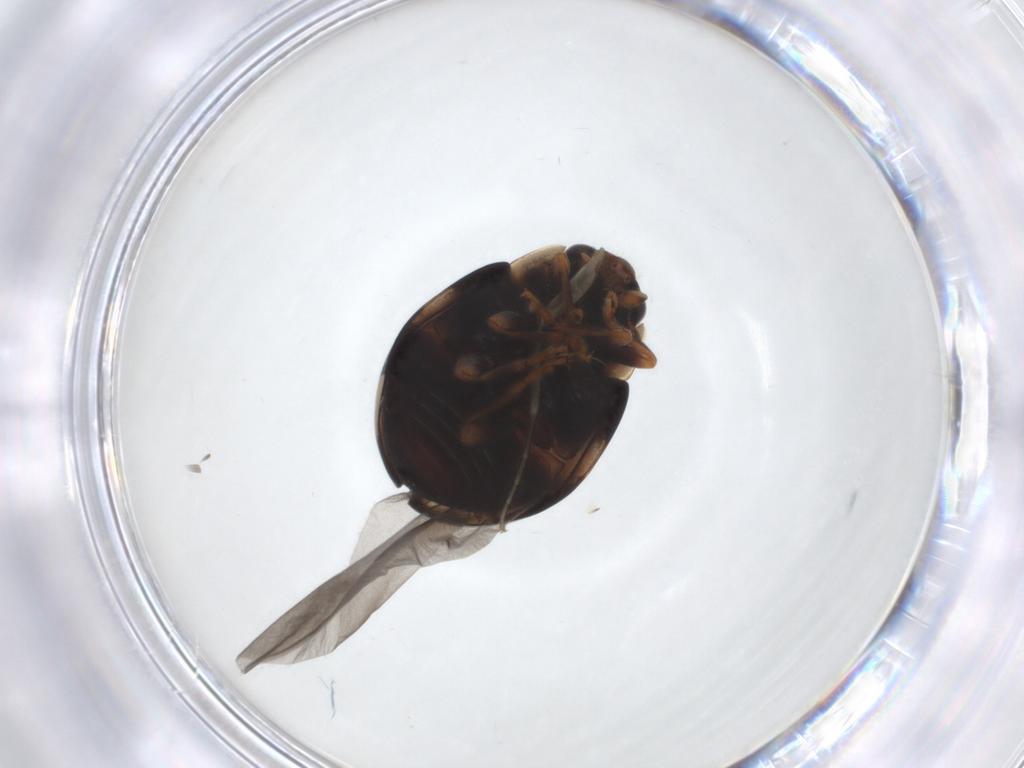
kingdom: Animalia
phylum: Arthropoda
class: Insecta
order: Coleoptera
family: Coccinellidae
